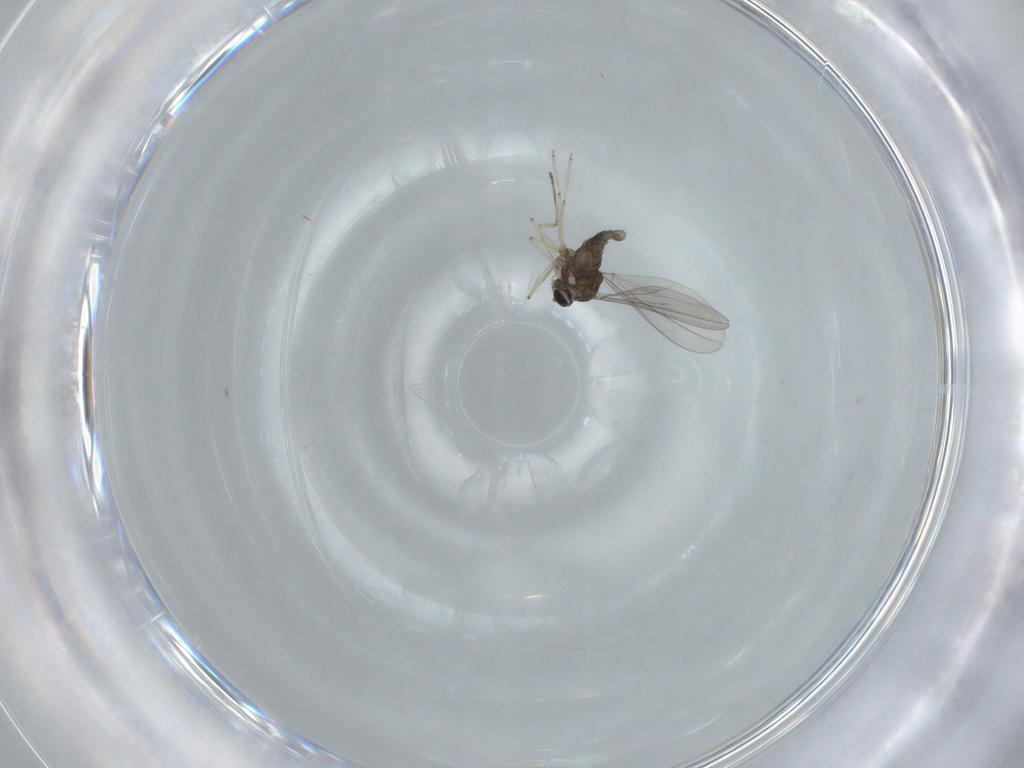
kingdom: Animalia
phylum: Arthropoda
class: Insecta
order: Diptera
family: Cecidomyiidae
